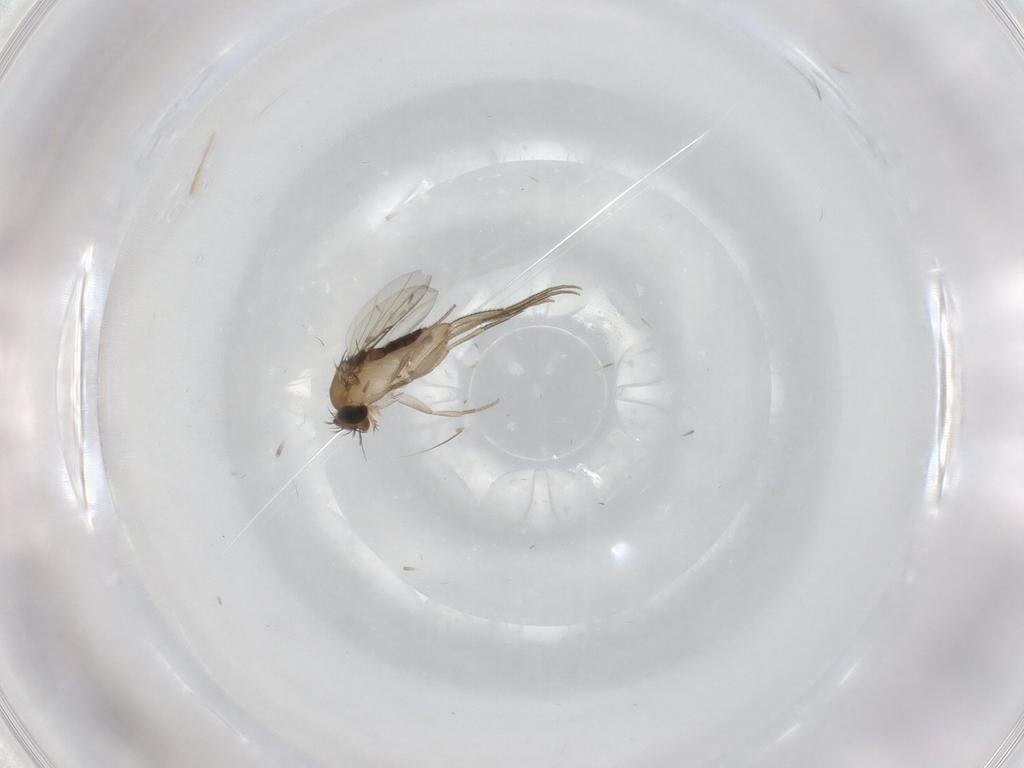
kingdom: Animalia
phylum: Arthropoda
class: Insecta
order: Diptera
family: Phoridae
